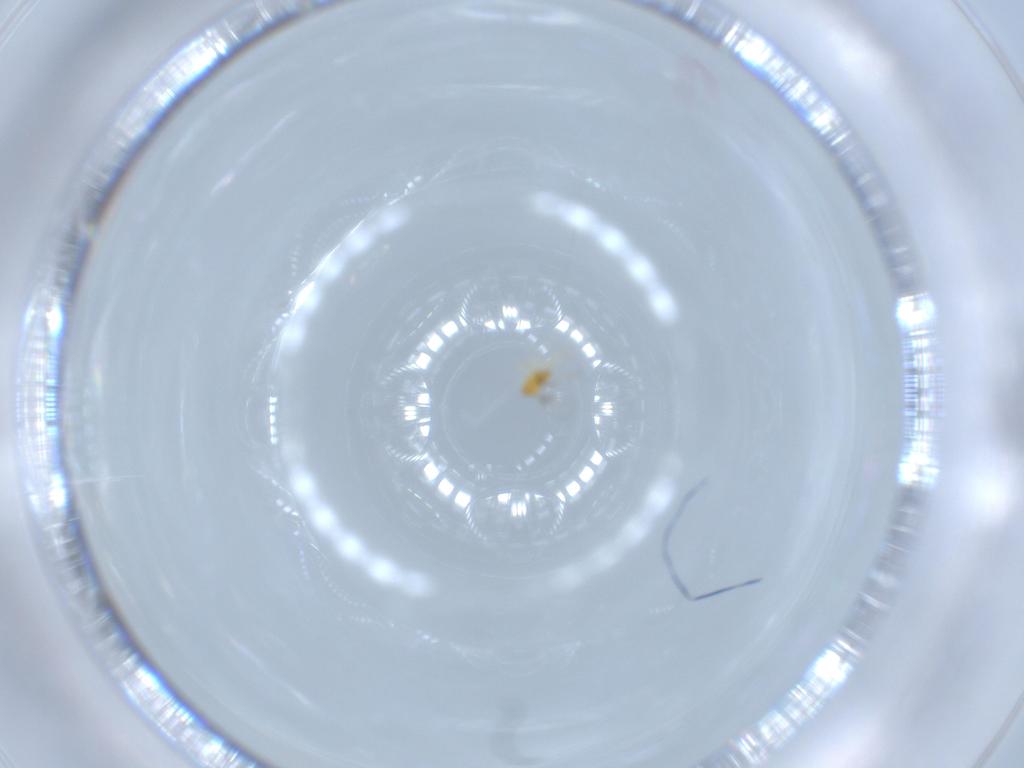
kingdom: Animalia
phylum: Arthropoda
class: Insecta
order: Hymenoptera
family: Trichogrammatidae
